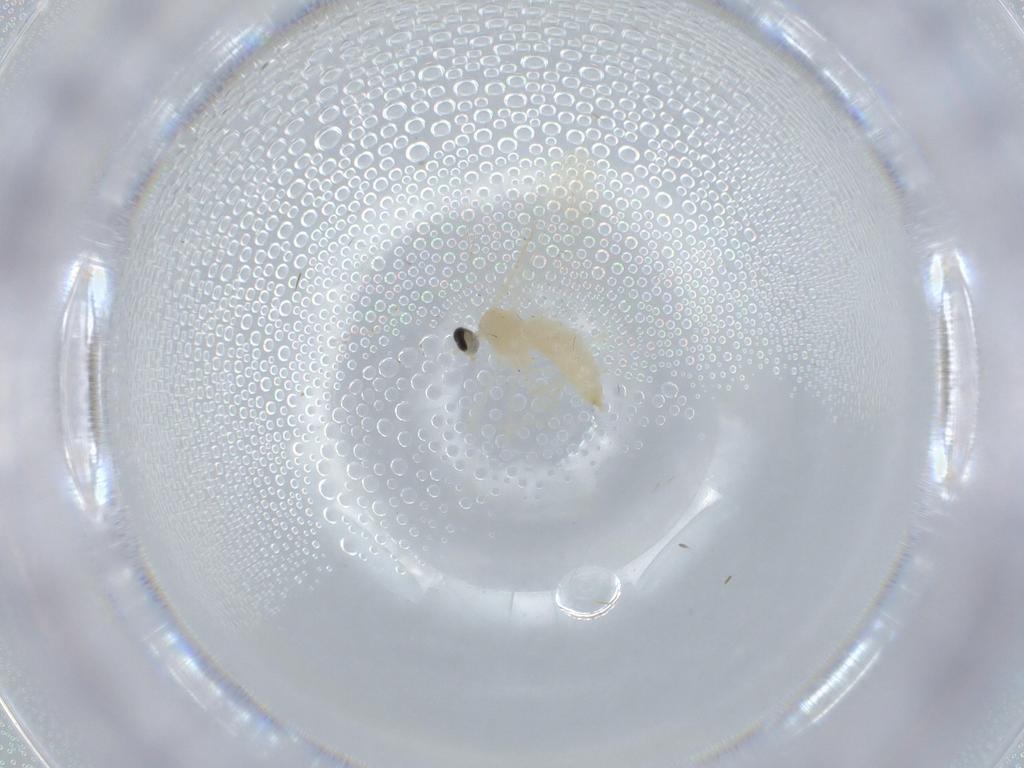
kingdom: Animalia
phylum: Arthropoda
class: Insecta
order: Diptera
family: Cecidomyiidae
